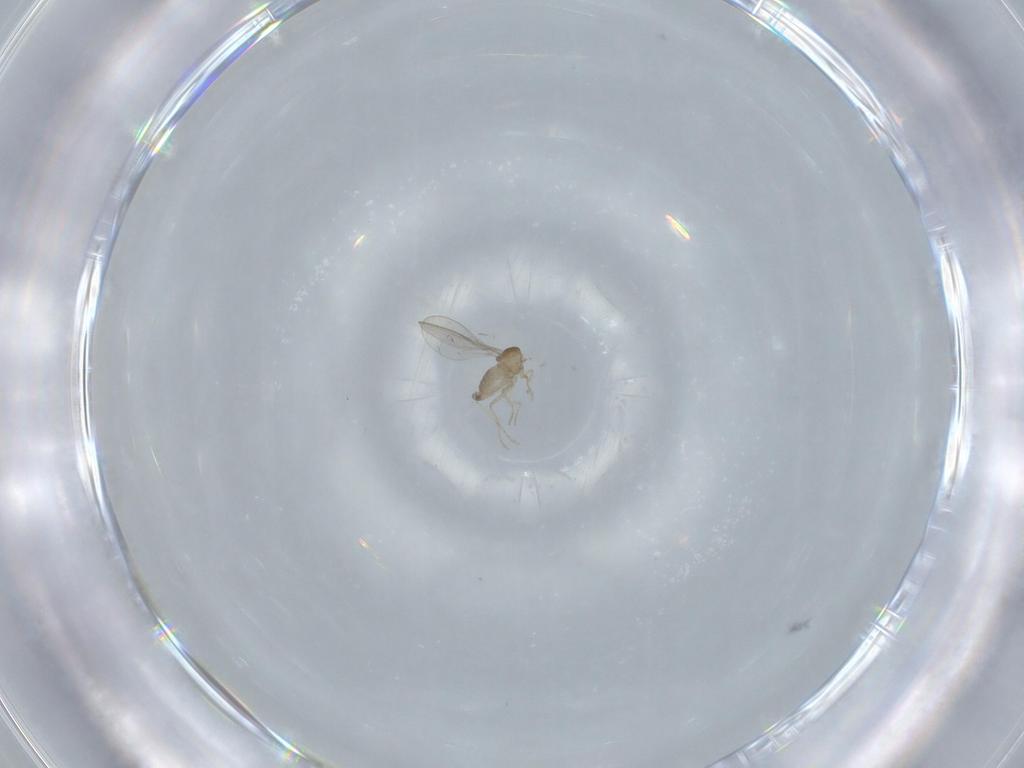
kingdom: Animalia
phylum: Arthropoda
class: Insecta
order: Diptera
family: Cecidomyiidae
